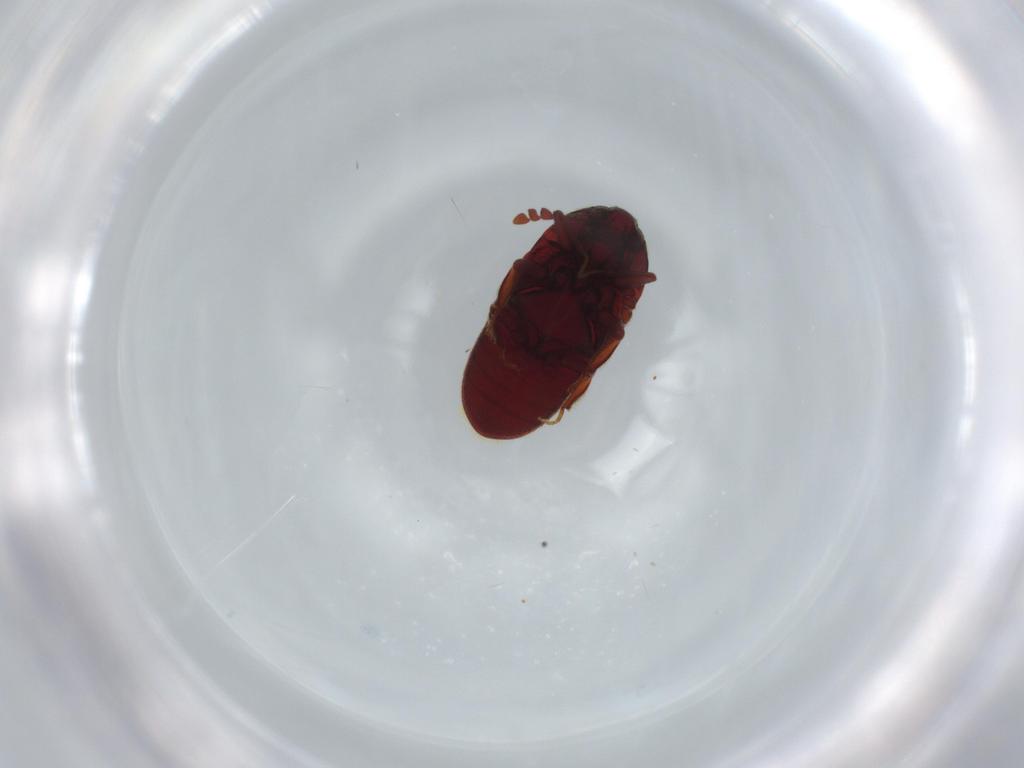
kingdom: Animalia
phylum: Arthropoda
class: Insecta
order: Coleoptera
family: Throscidae
